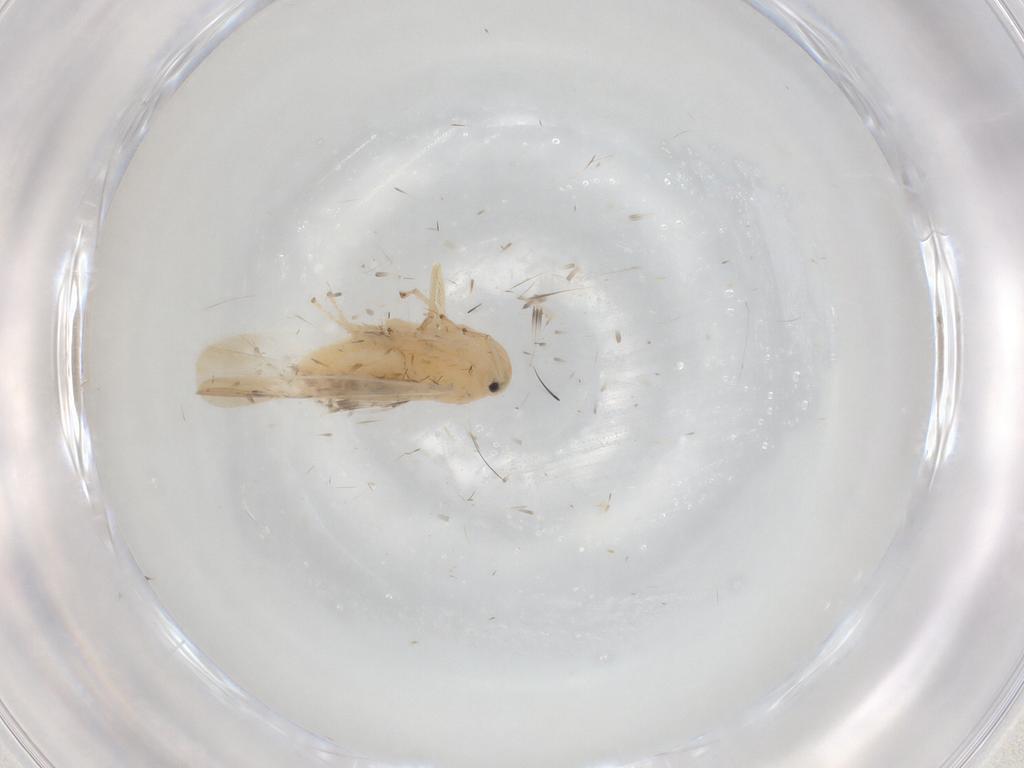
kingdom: Animalia
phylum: Arthropoda
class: Insecta
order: Hemiptera
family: Cicadellidae
